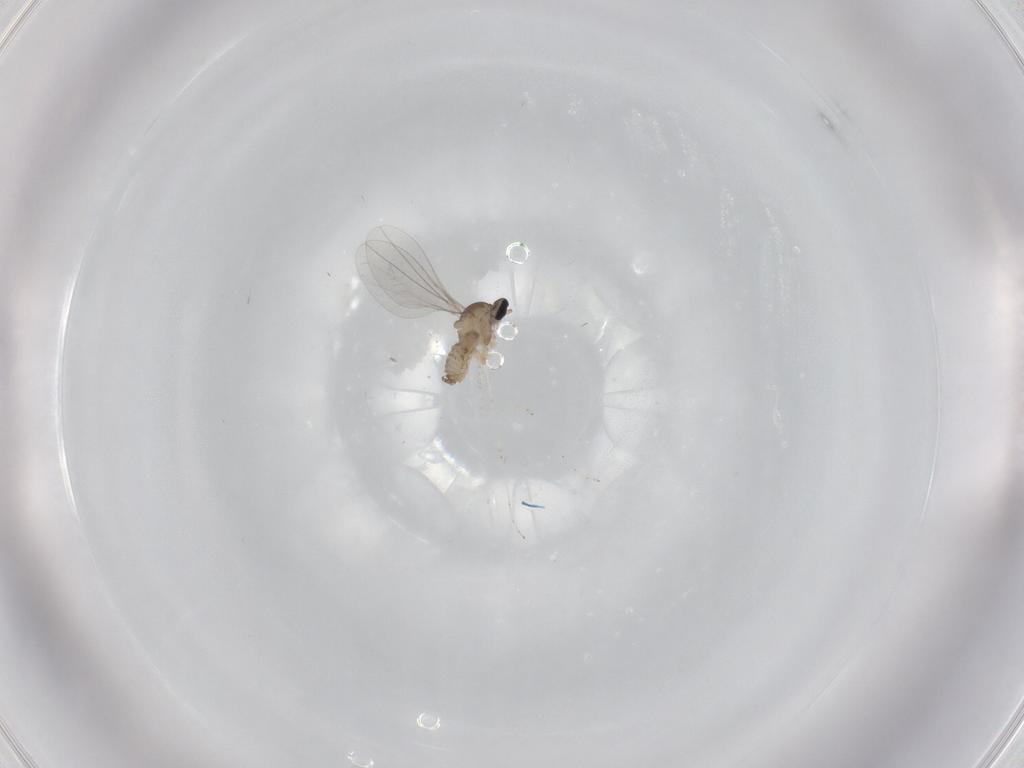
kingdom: Animalia
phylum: Arthropoda
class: Insecta
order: Diptera
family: Cecidomyiidae
